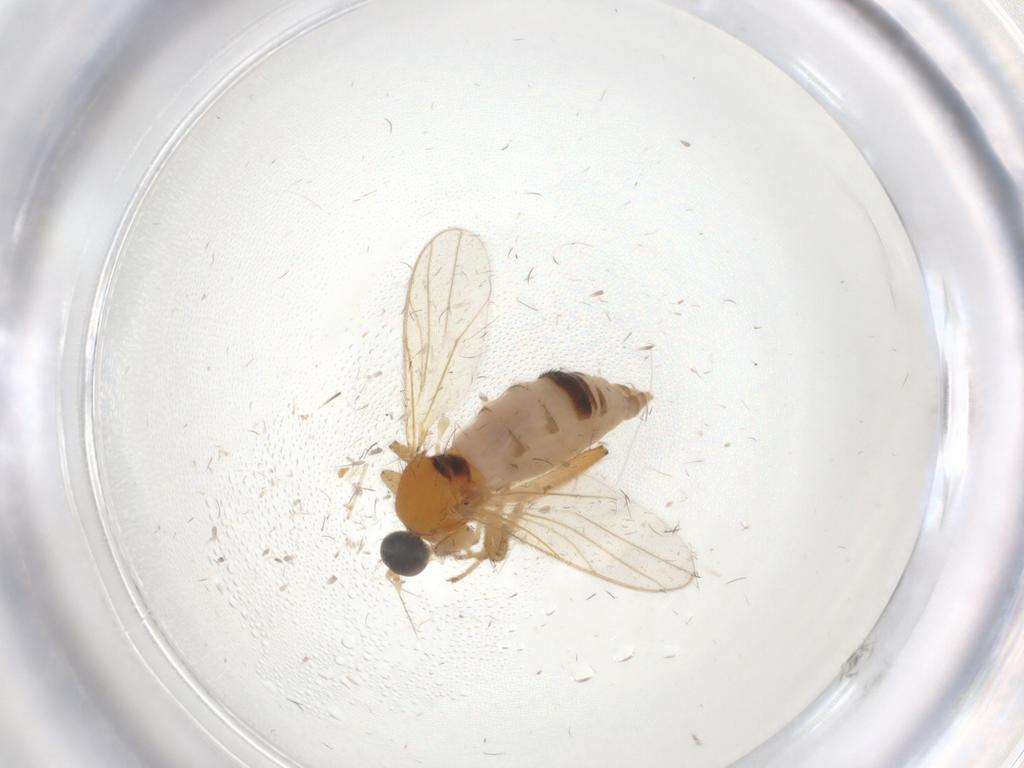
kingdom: Animalia
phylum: Arthropoda
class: Insecta
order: Diptera
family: Hybotidae
